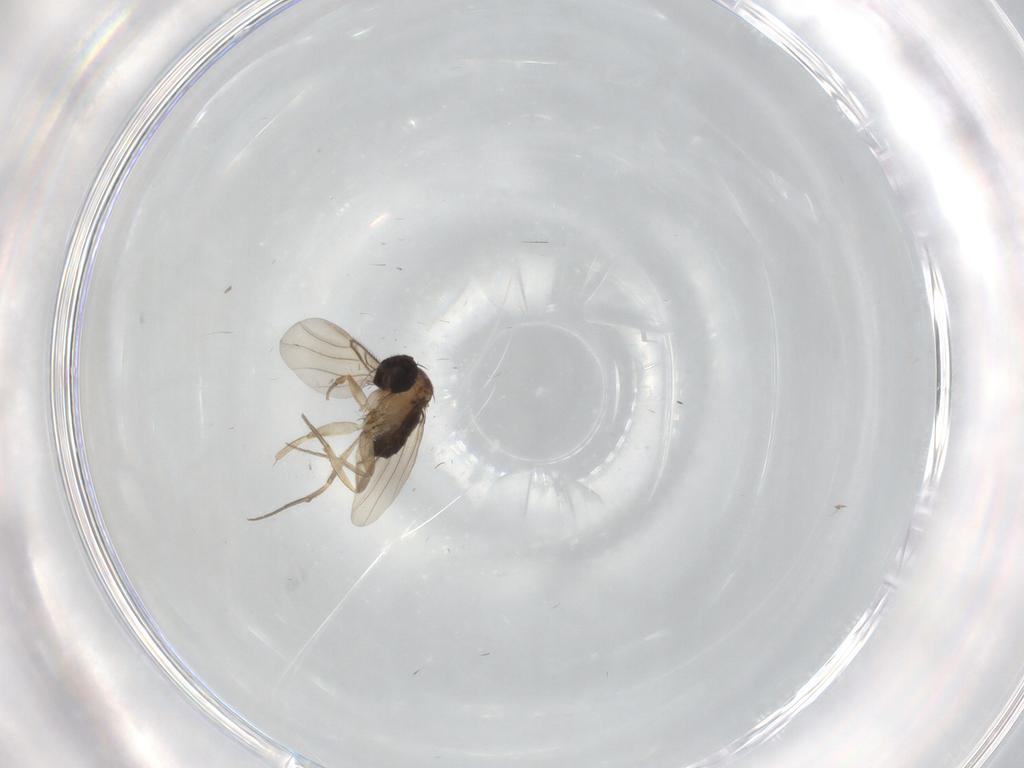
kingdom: Animalia
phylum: Arthropoda
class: Insecta
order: Diptera
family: Phoridae
